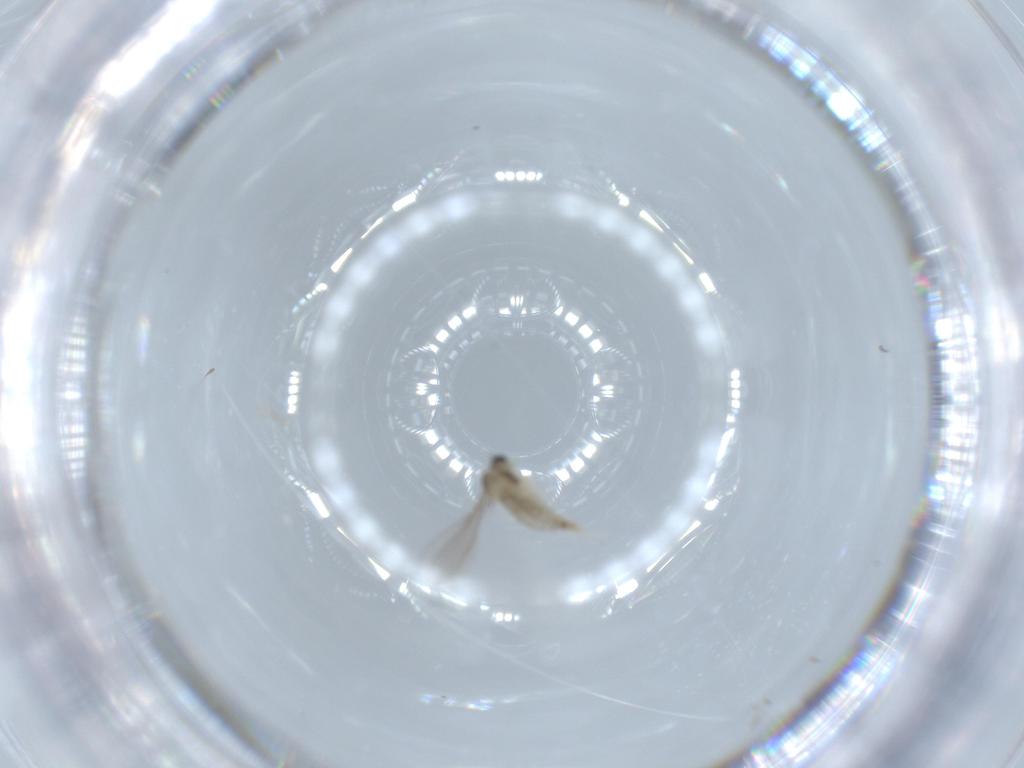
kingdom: Animalia
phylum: Arthropoda
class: Insecta
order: Diptera
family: Cecidomyiidae
